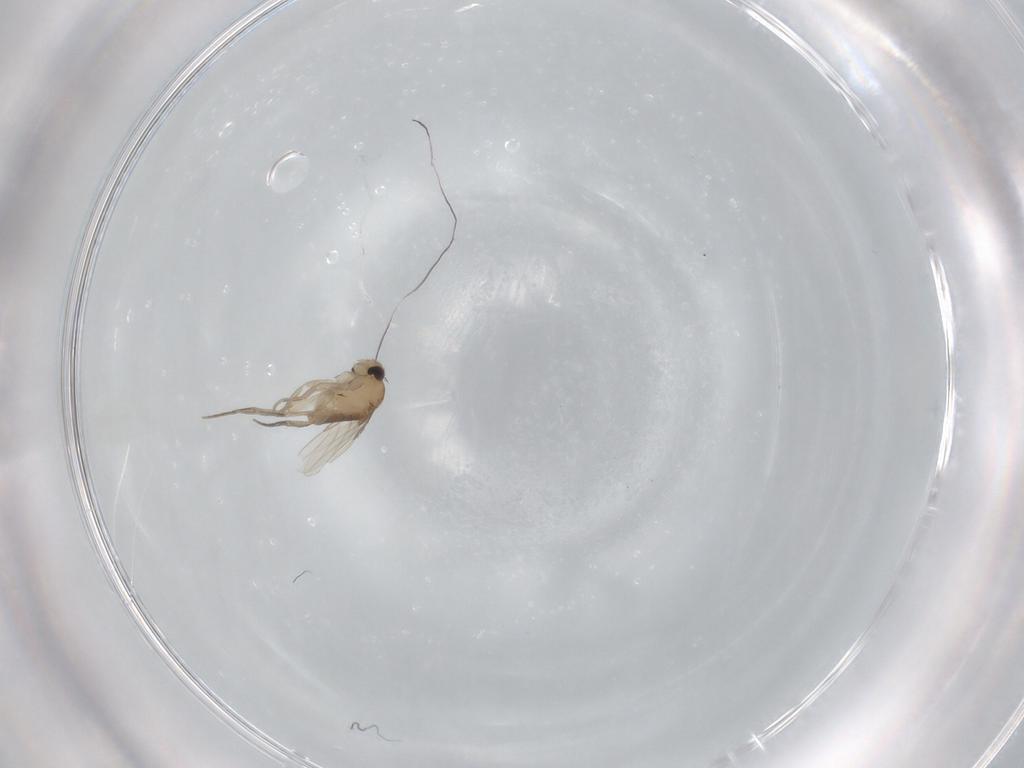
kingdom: Animalia
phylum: Arthropoda
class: Insecta
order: Diptera
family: Phoridae
